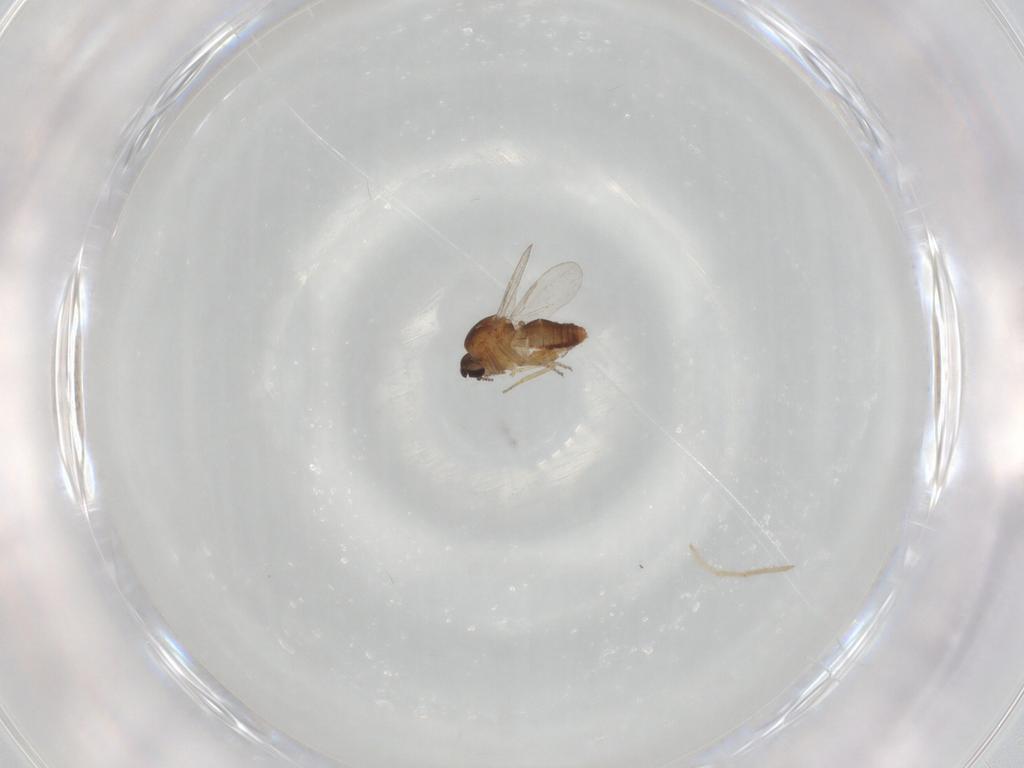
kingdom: Animalia
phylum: Arthropoda
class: Insecta
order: Diptera
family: Ceratopogonidae
